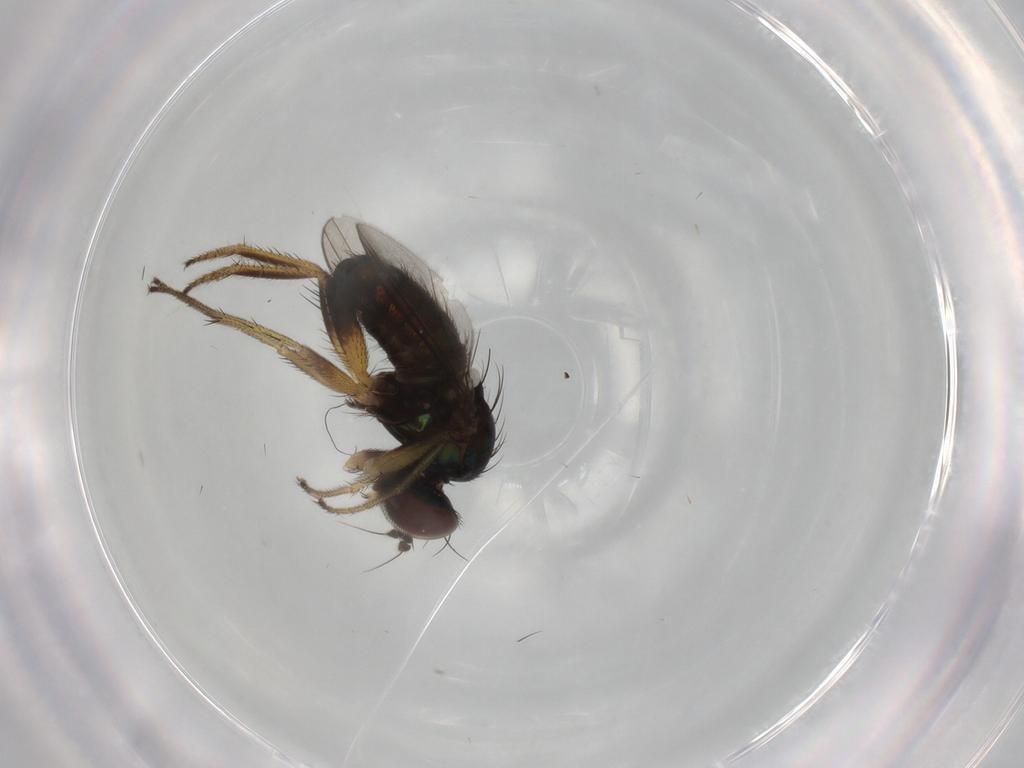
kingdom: Animalia
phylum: Arthropoda
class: Insecta
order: Diptera
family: Dolichopodidae
